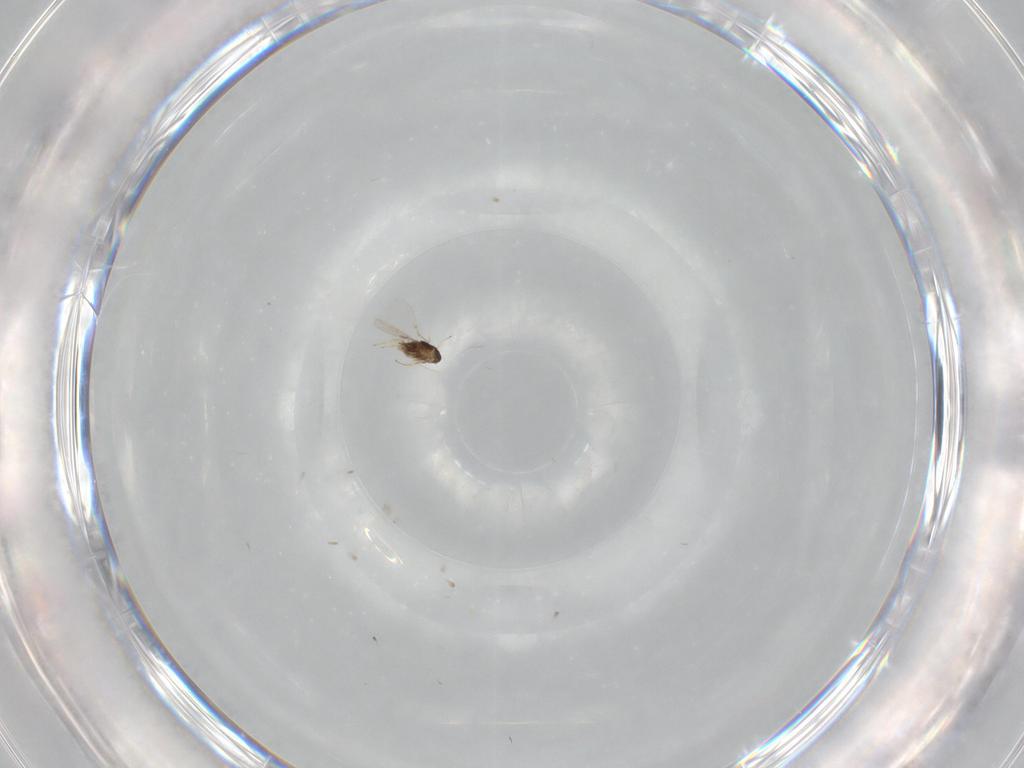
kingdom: Animalia
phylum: Arthropoda
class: Insecta
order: Hymenoptera
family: Encyrtidae
